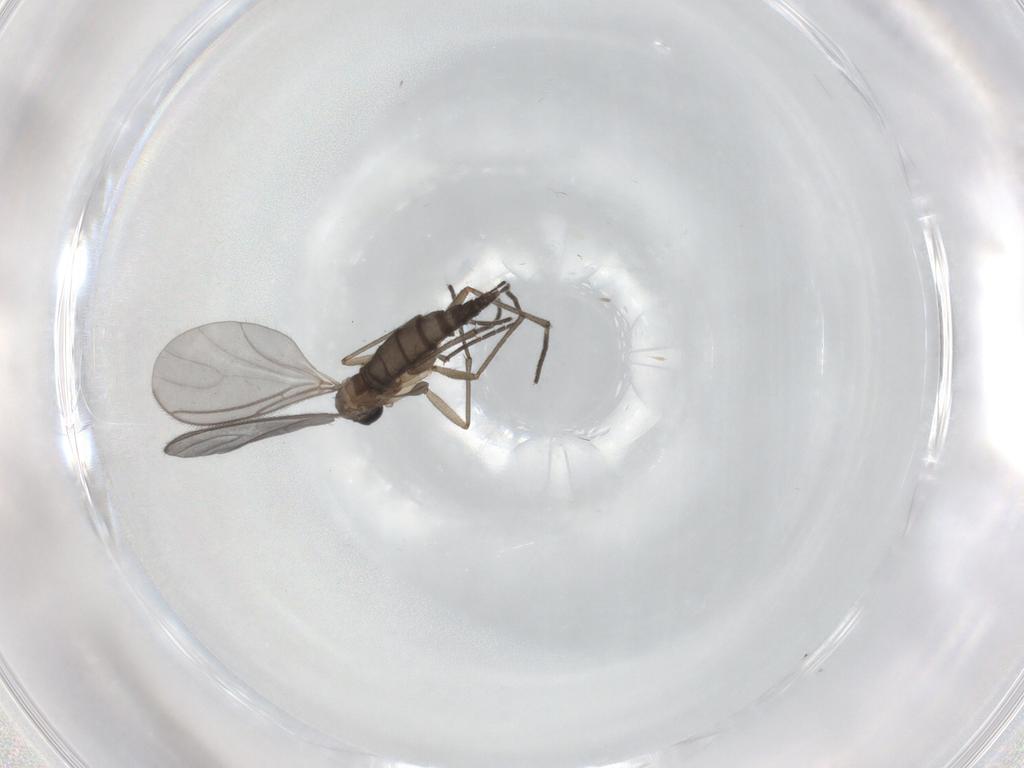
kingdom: Animalia
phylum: Arthropoda
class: Insecta
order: Diptera
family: Sciaridae
